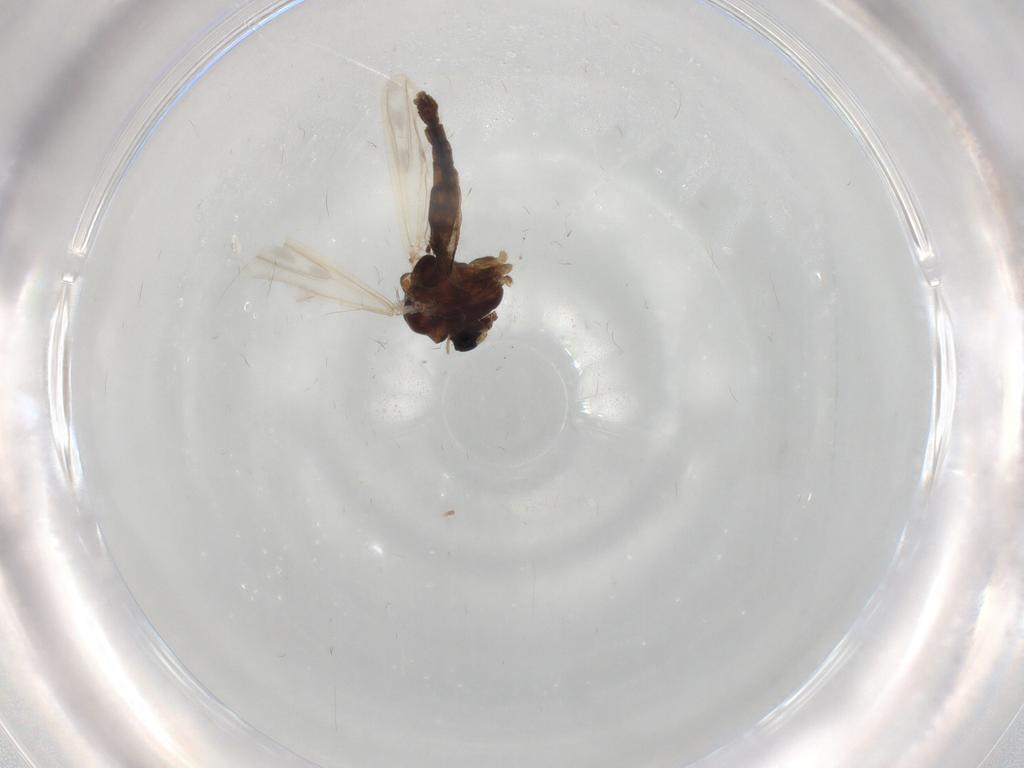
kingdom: Animalia
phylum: Arthropoda
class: Insecta
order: Diptera
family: Chironomidae
